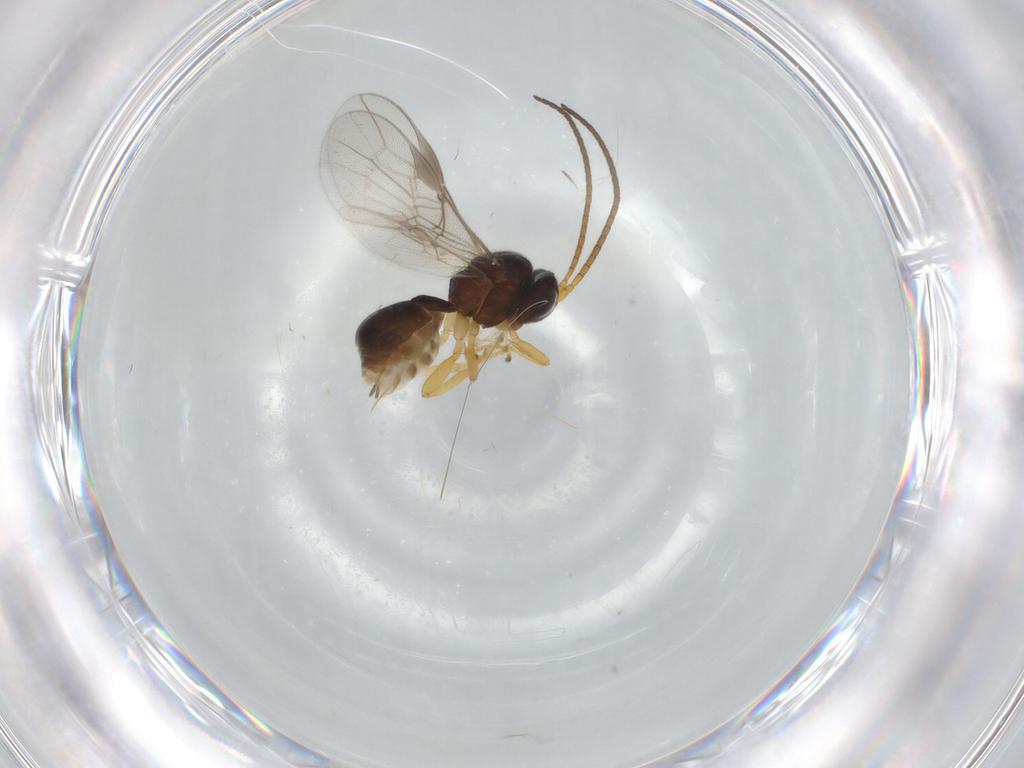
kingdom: Animalia
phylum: Arthropoda
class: Insecta
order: Hymenoptera
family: Braconidae
